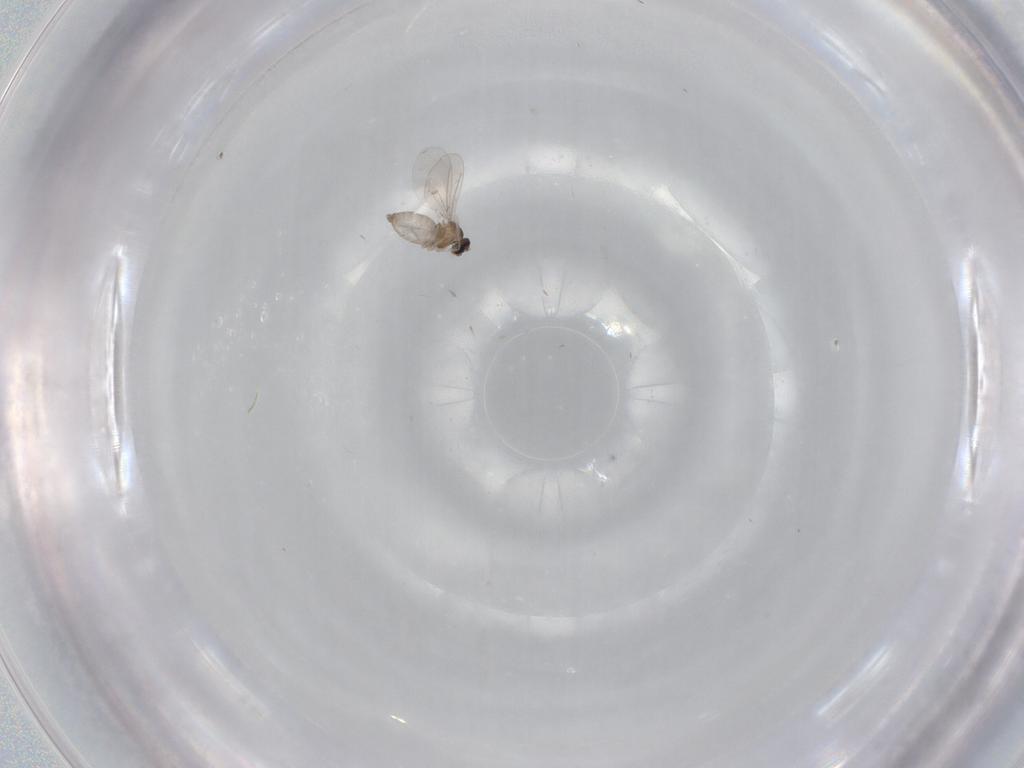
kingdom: Animalia
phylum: Arthropoda
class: Insecta
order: Diptera
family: Cecidomyiidae
